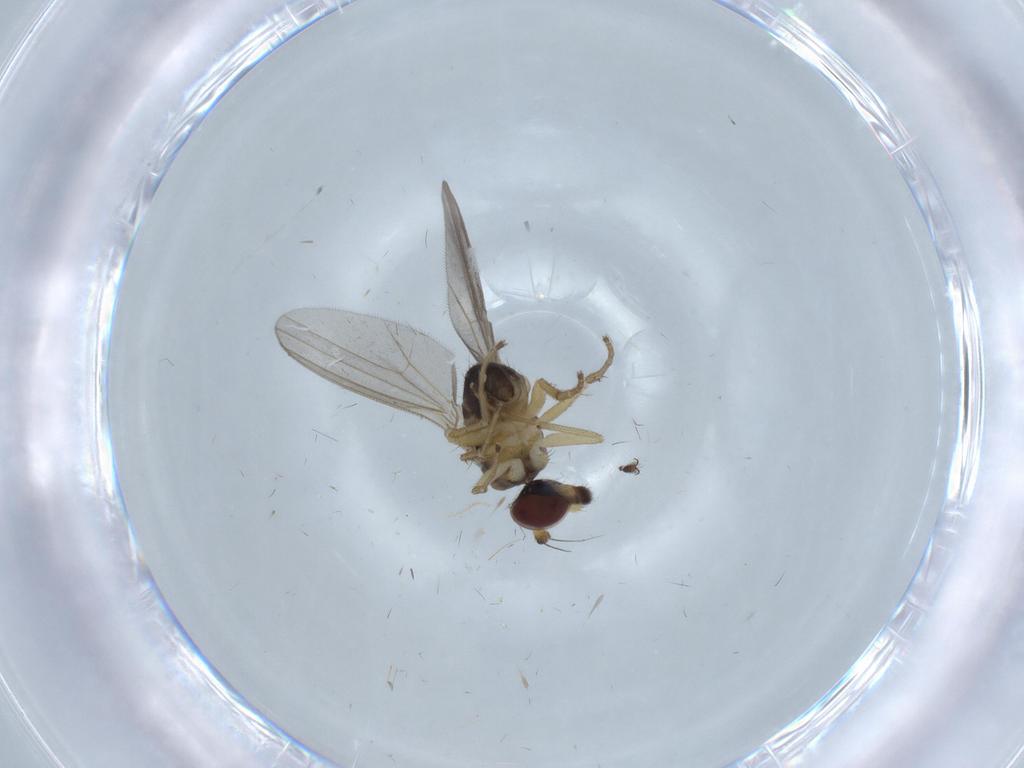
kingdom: Animalia
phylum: Arthropoda
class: Insecta
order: Diptera
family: Dolichopodidae
